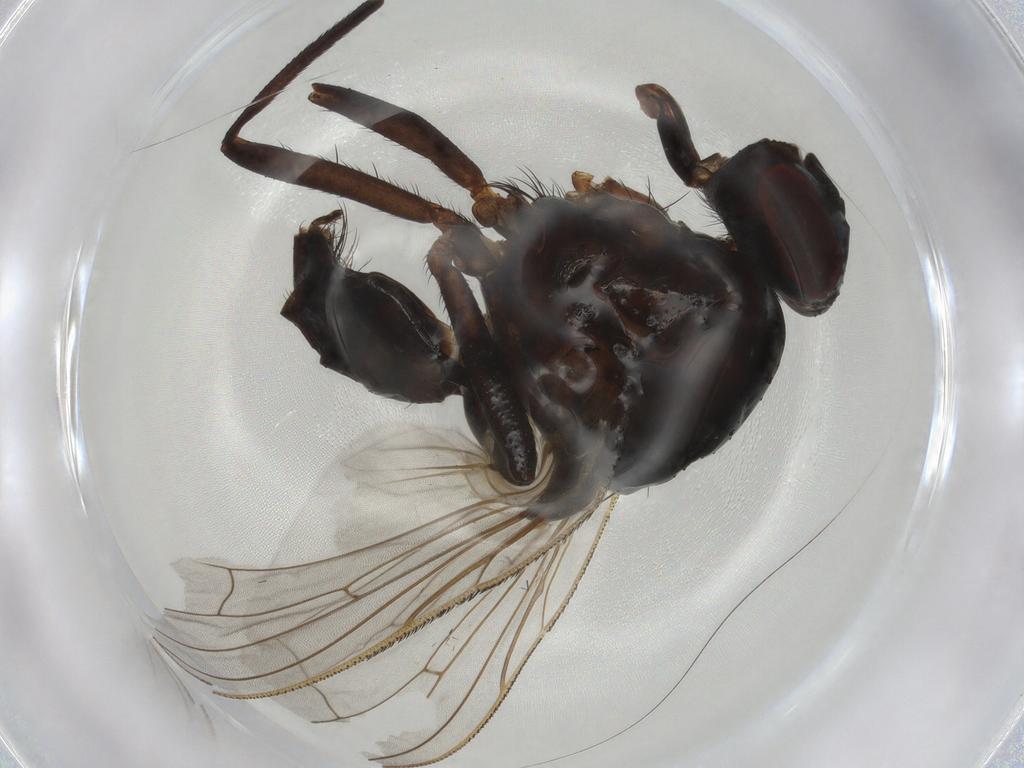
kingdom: Animalia
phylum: Arthropoda
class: Insecta
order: Diptera
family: Anthomyiidae
